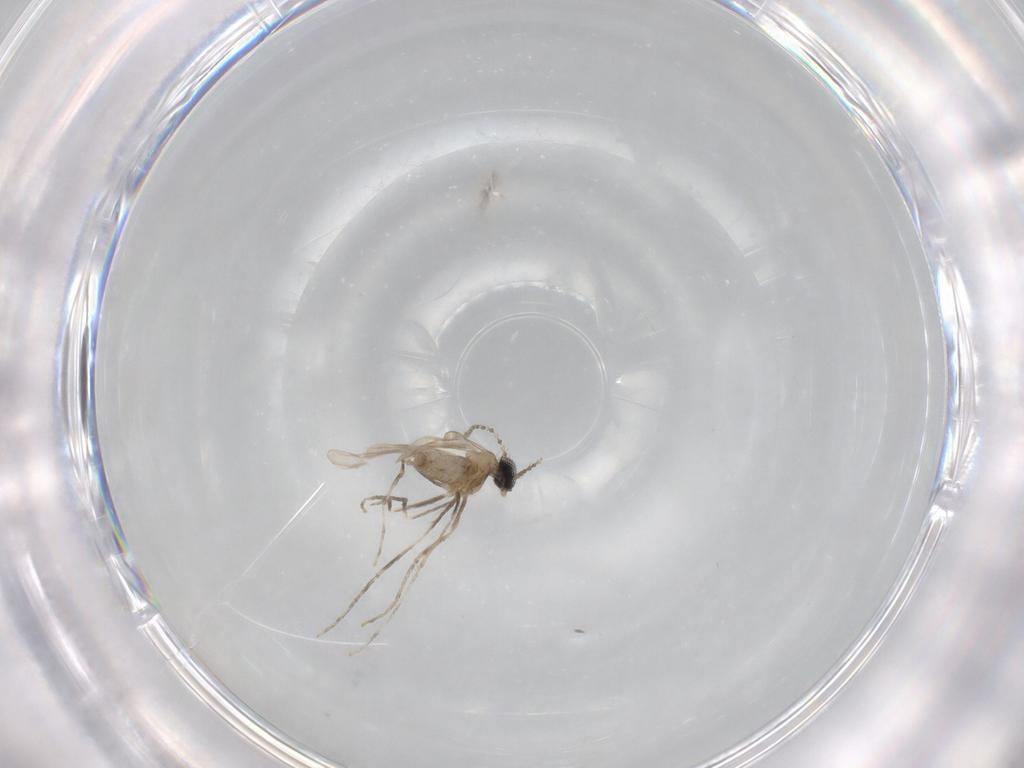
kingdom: Animalia
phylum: Arthropoda
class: Insecta
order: Diptera
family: Cecidomyiidae
